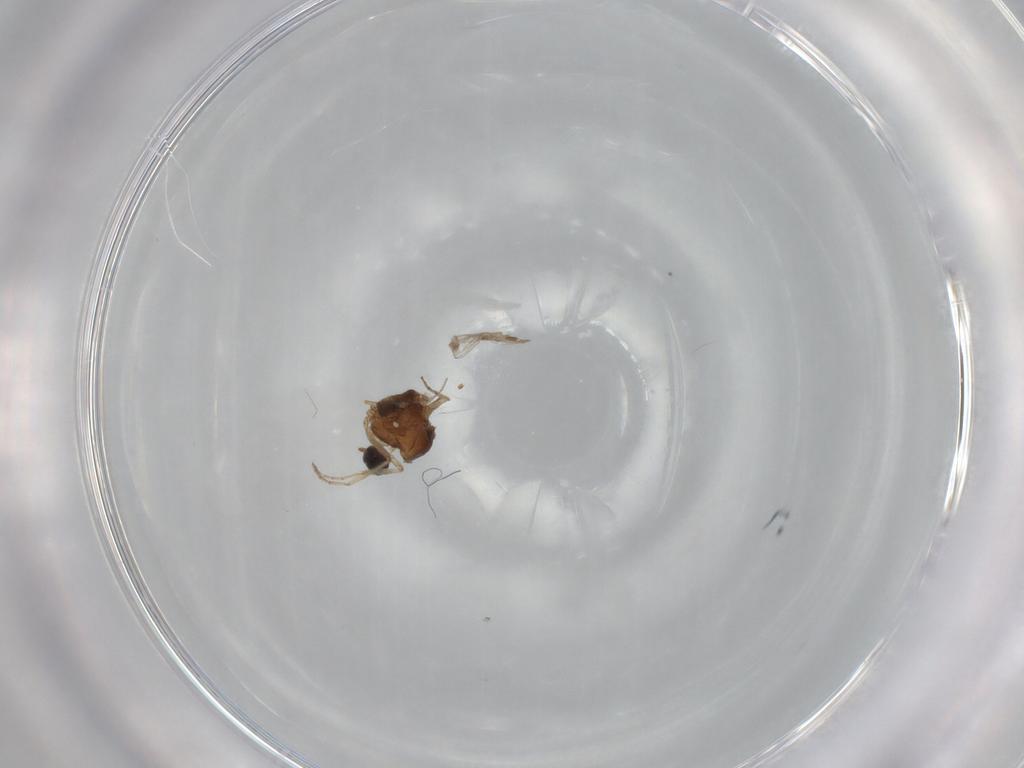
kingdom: Animalia
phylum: Arthropoda
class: Insecta
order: Diptera
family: Ceratopogonidae
